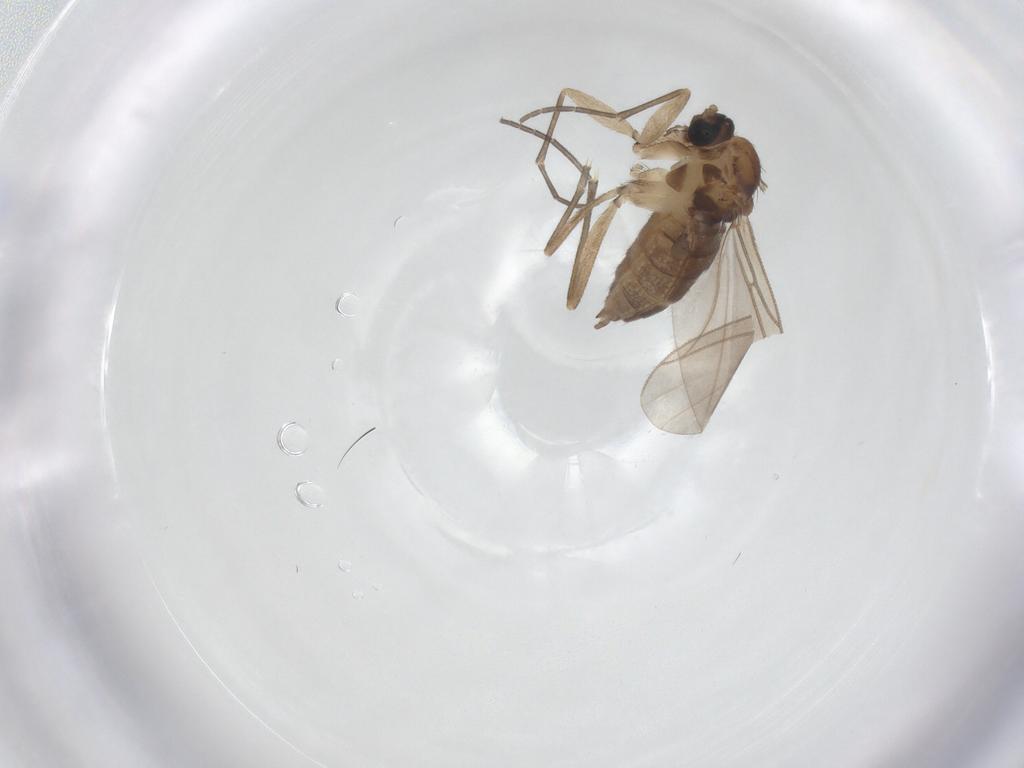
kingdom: Animalia
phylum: Arthropoda
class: Insecta
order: Diptera
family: Sciaridae
